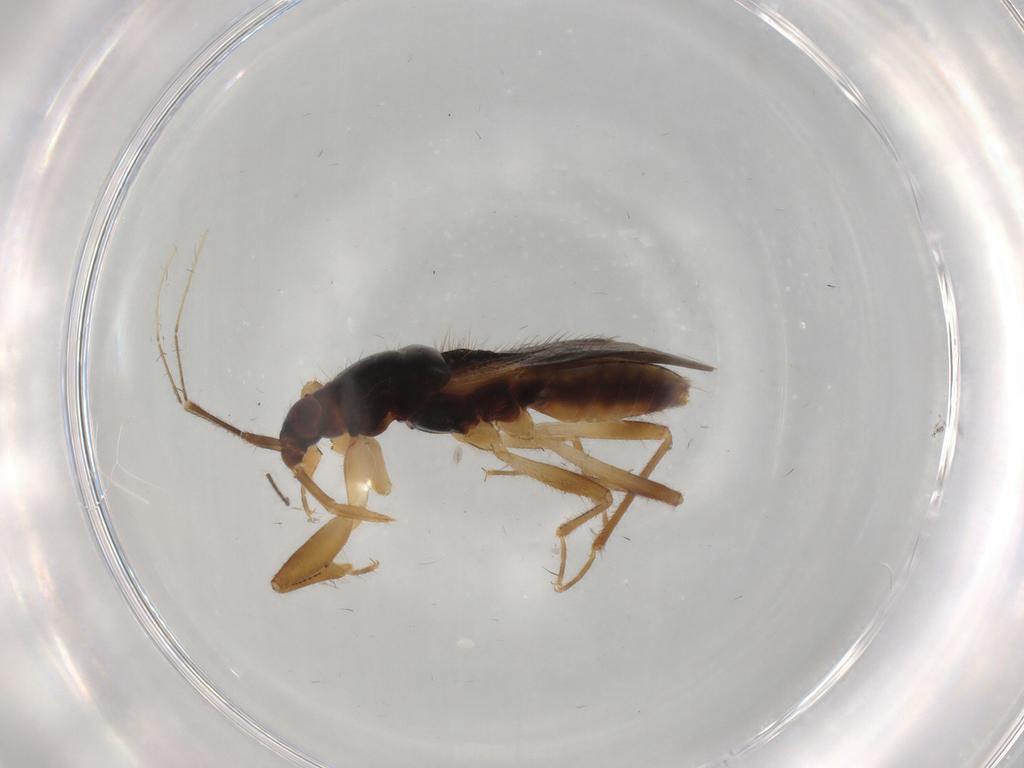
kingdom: Animalia
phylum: Arthropoda
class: Insecta
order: Hemiptera
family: Nabidae
